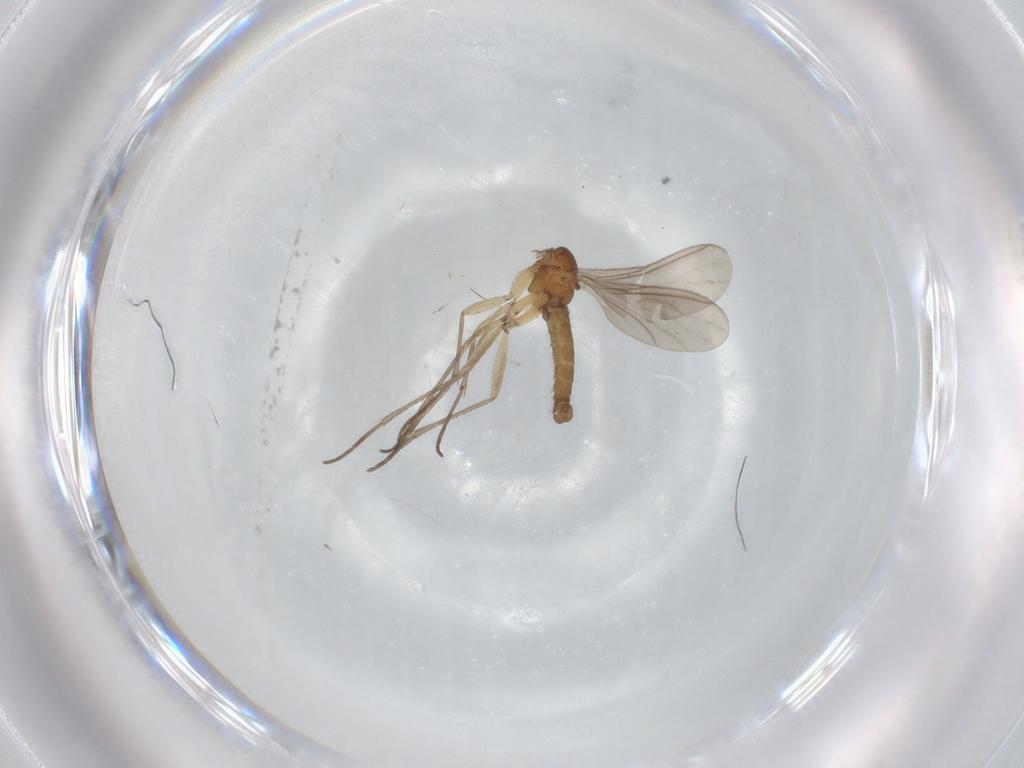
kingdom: Animalia
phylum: Arthropoda
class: Insecta
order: Diptera
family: Sciaridae
